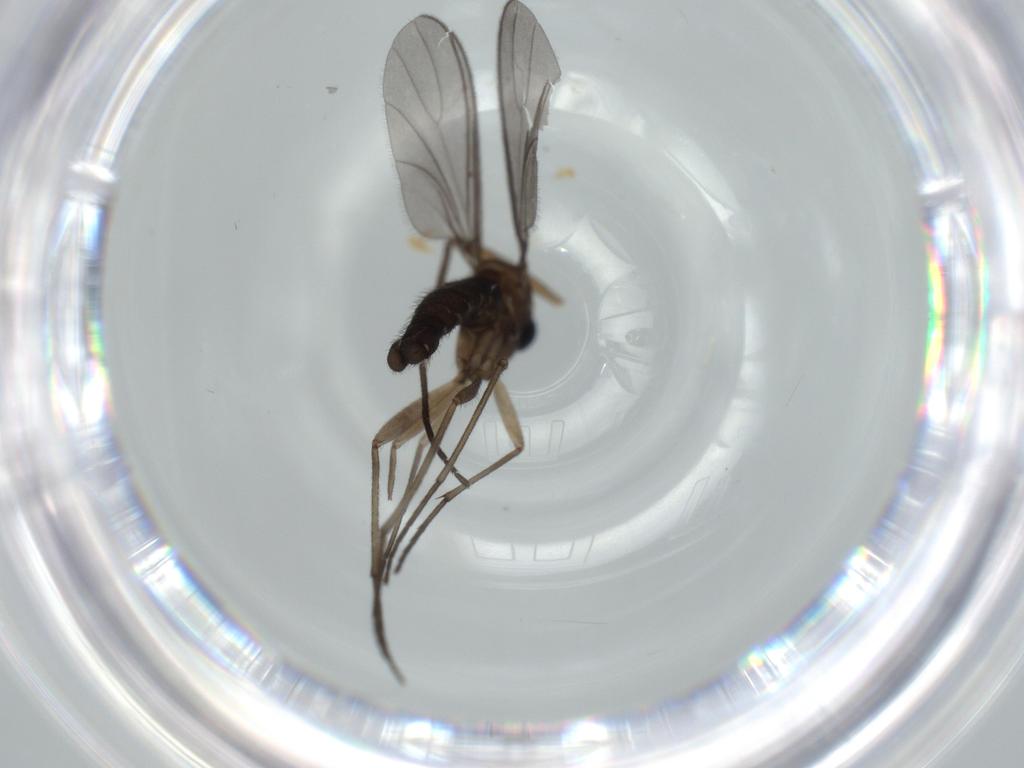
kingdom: Animalia
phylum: Arthropoda
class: Insecta
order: Diptera
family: Sciaridae
